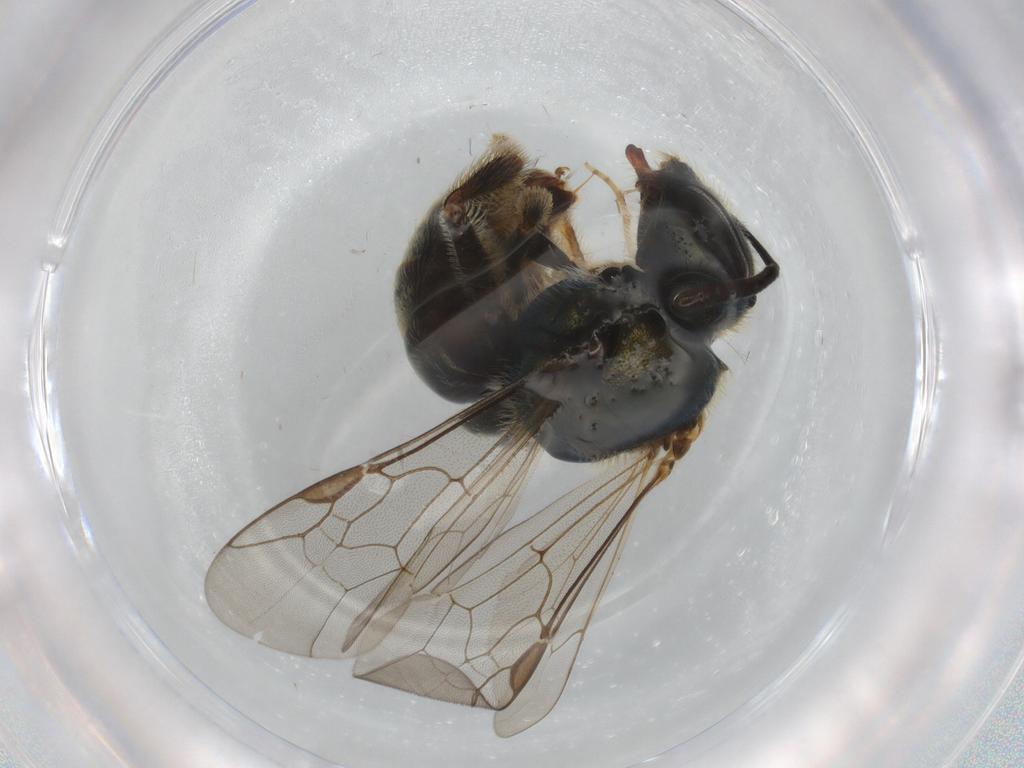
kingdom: Animalia
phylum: Arthropoda
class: Insecta
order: Hymenoptera
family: Halictidae
